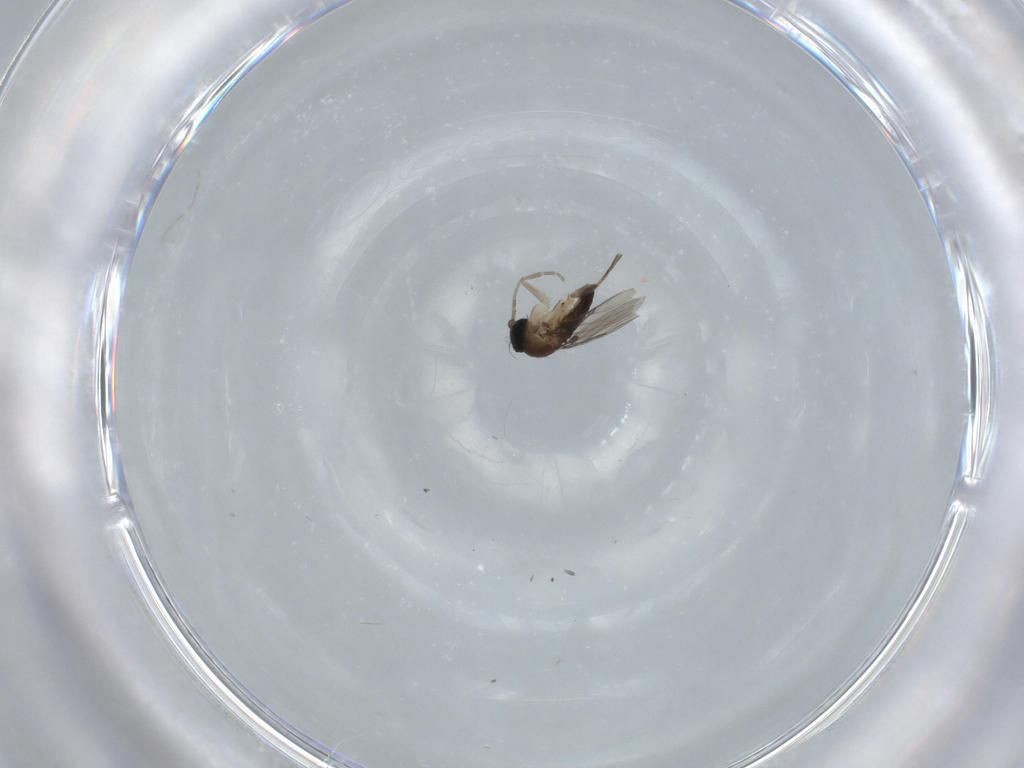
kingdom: Animalia
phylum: Arthropoda
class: Insecta
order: Diptera
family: Phoridae
